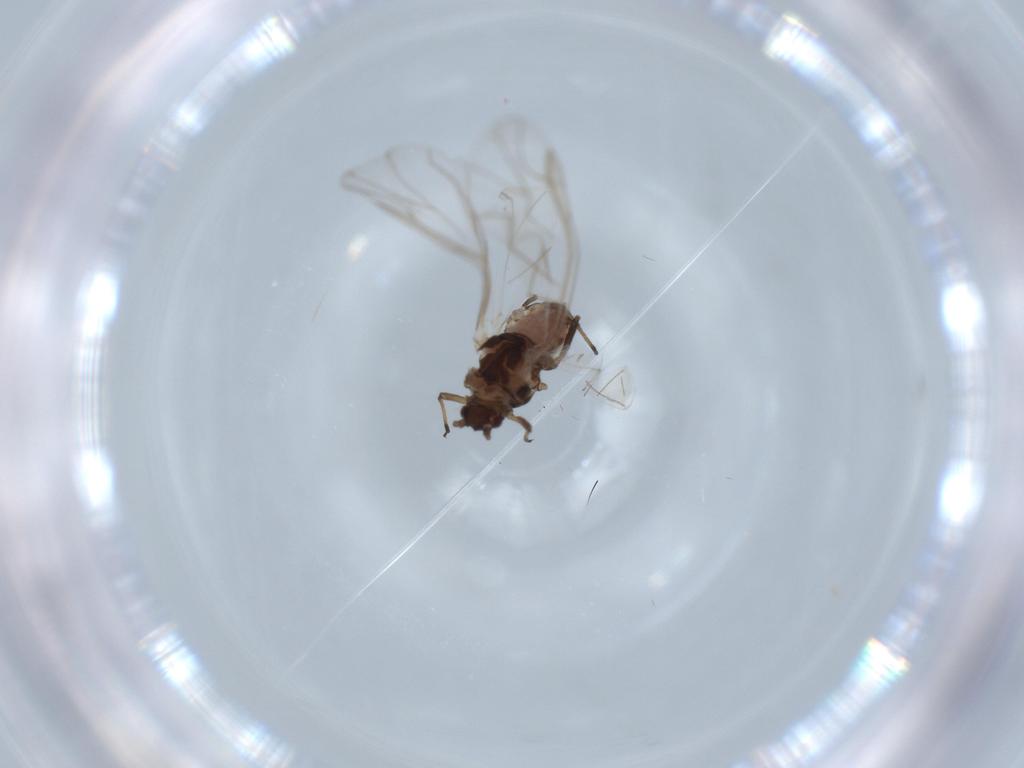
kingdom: Animalia
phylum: Arthropoda
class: Insecta
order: Hemiptera
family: Aphididae
